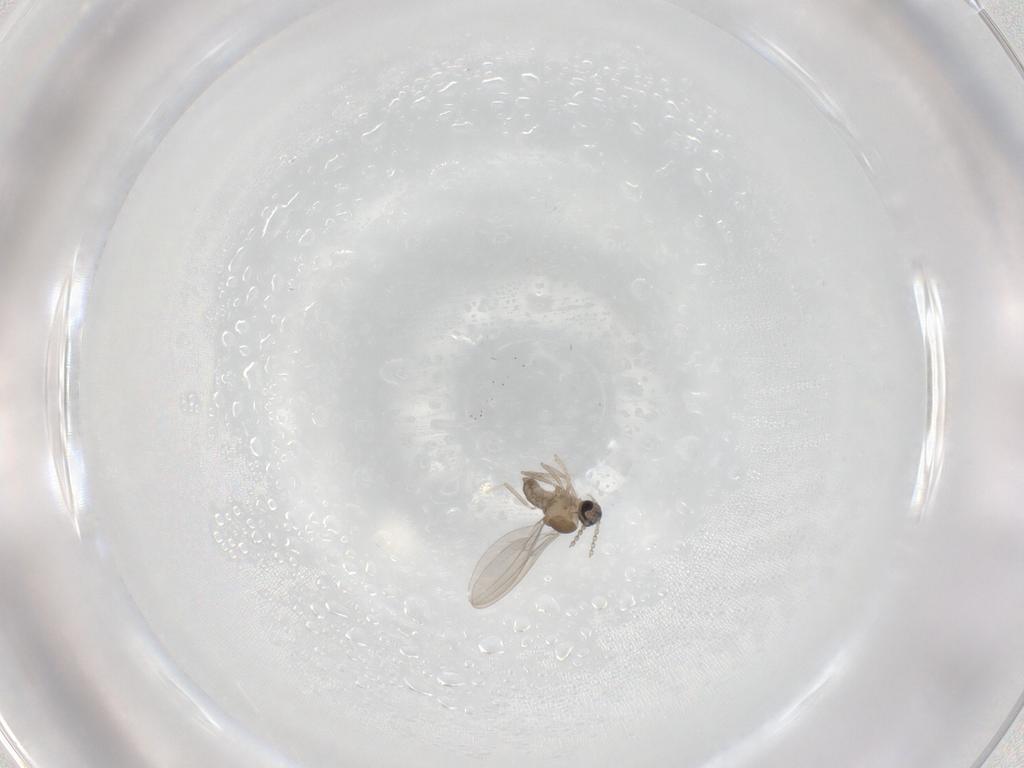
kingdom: Animalia
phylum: Arthropoda
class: Insecta
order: Diptera
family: Cecidomyiidae
